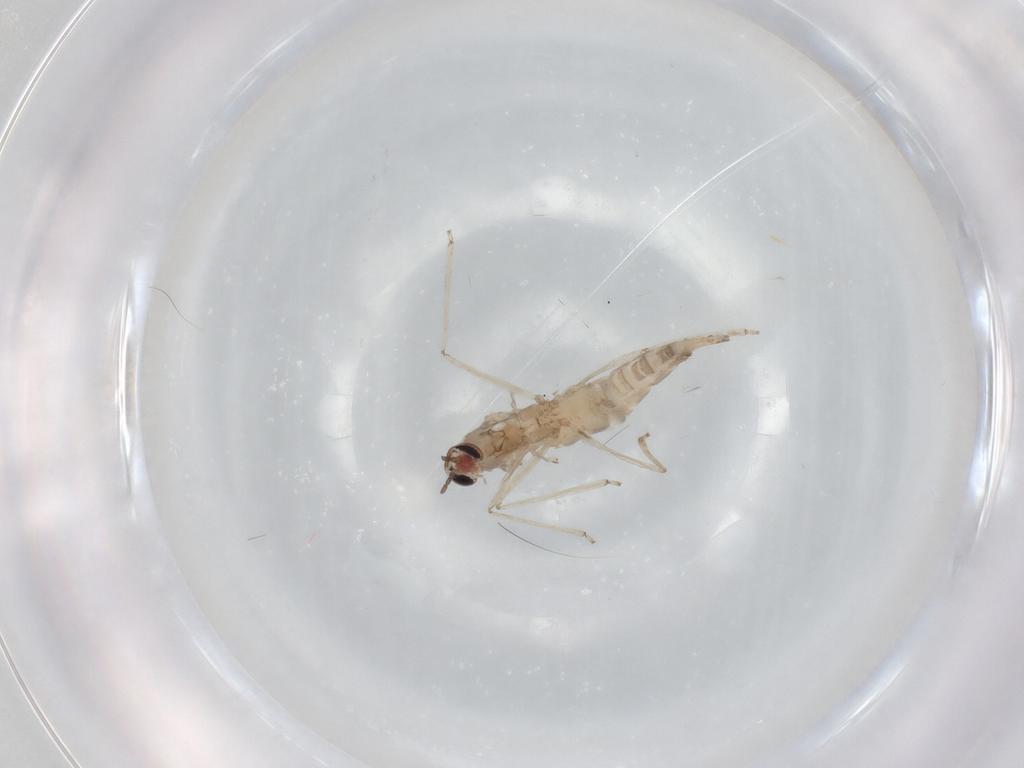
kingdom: Animalia
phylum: Arthropoda
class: Insecta
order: Diptera
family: Cecidomyiidae
